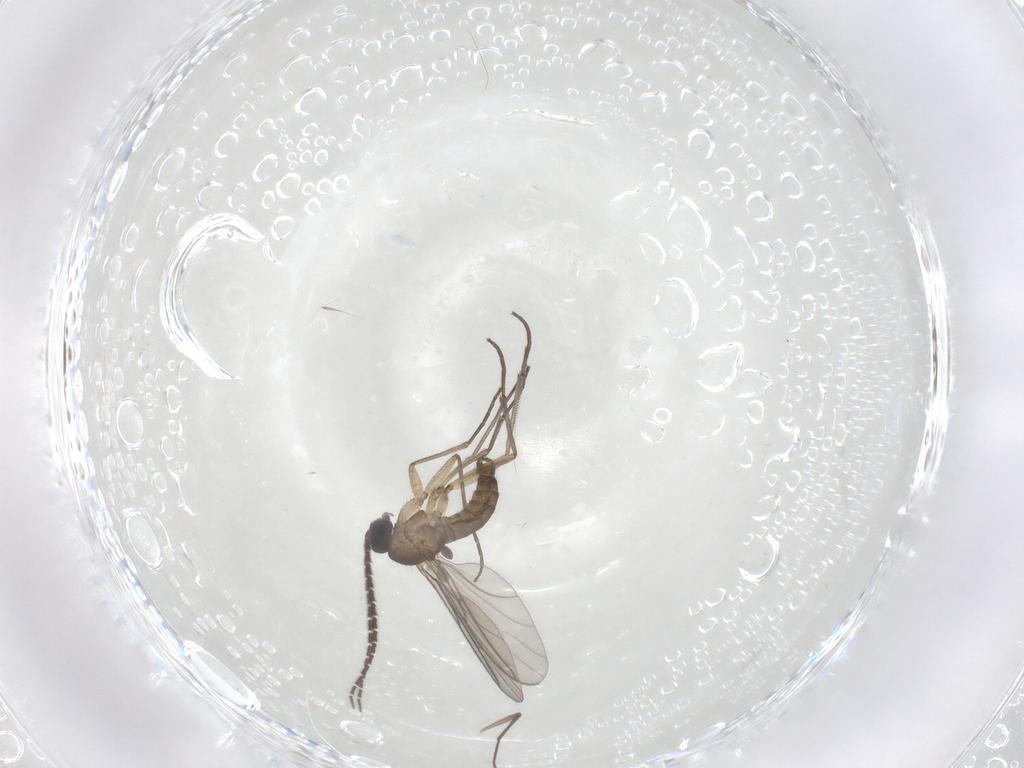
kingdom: Animalia
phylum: Arthropoda
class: Insecta
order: Diptera
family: Sciaridae
